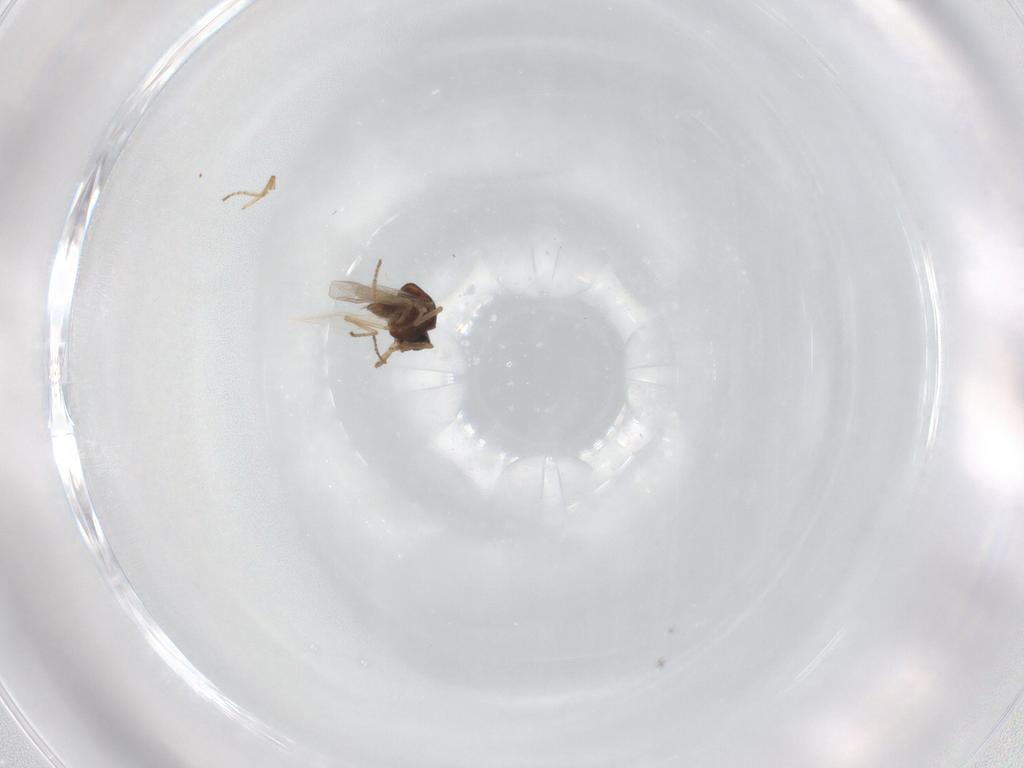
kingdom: Animalia
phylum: Arthropoda
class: Insecta
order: Diptera
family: Ceratopogonidae
